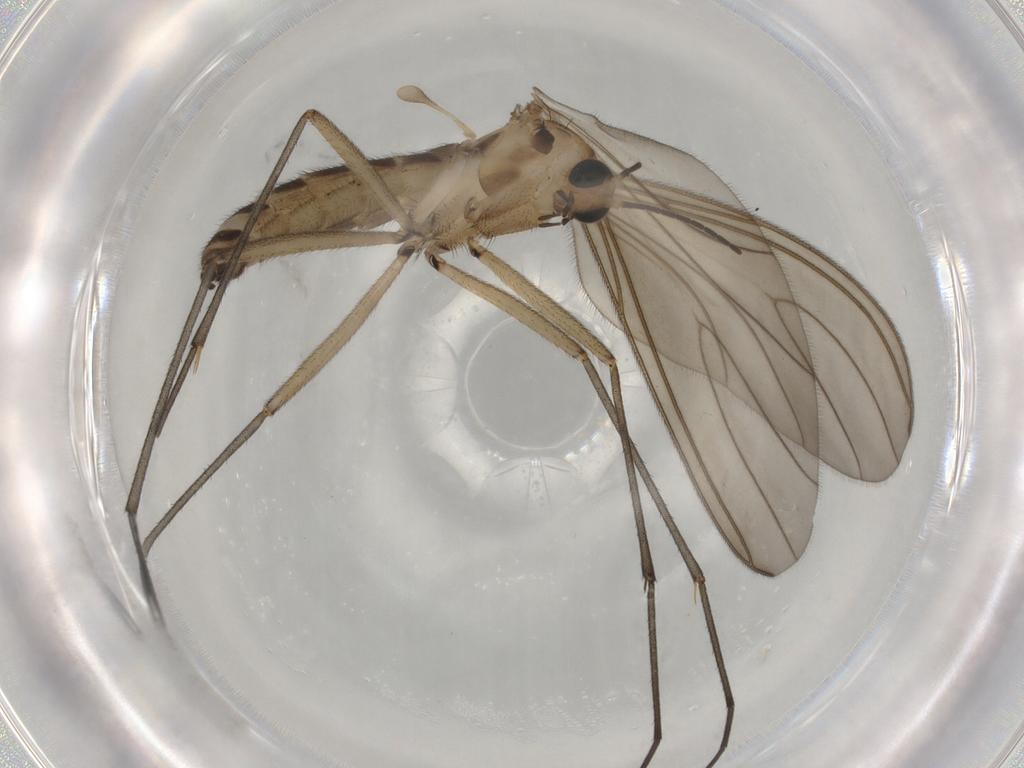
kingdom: Animalia
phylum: Arthropoda
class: Insecta
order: Diptera
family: Sciaridae
